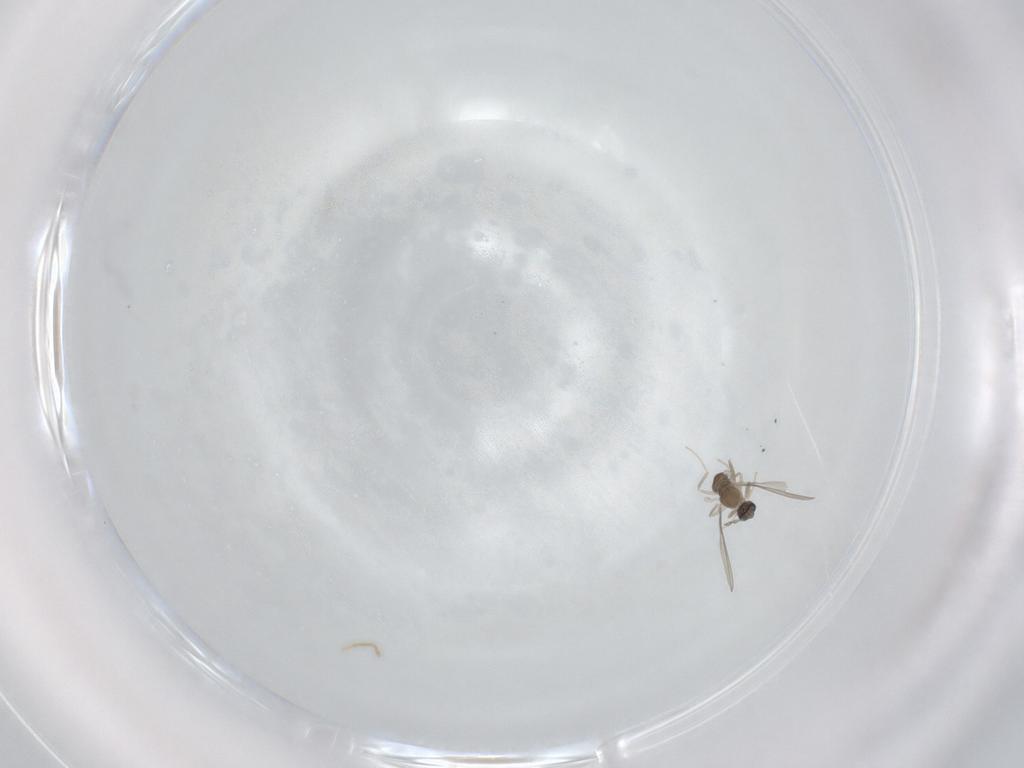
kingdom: Animalia
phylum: Arthropoda
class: Insecta
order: Diptera
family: Cecidomyiidae
